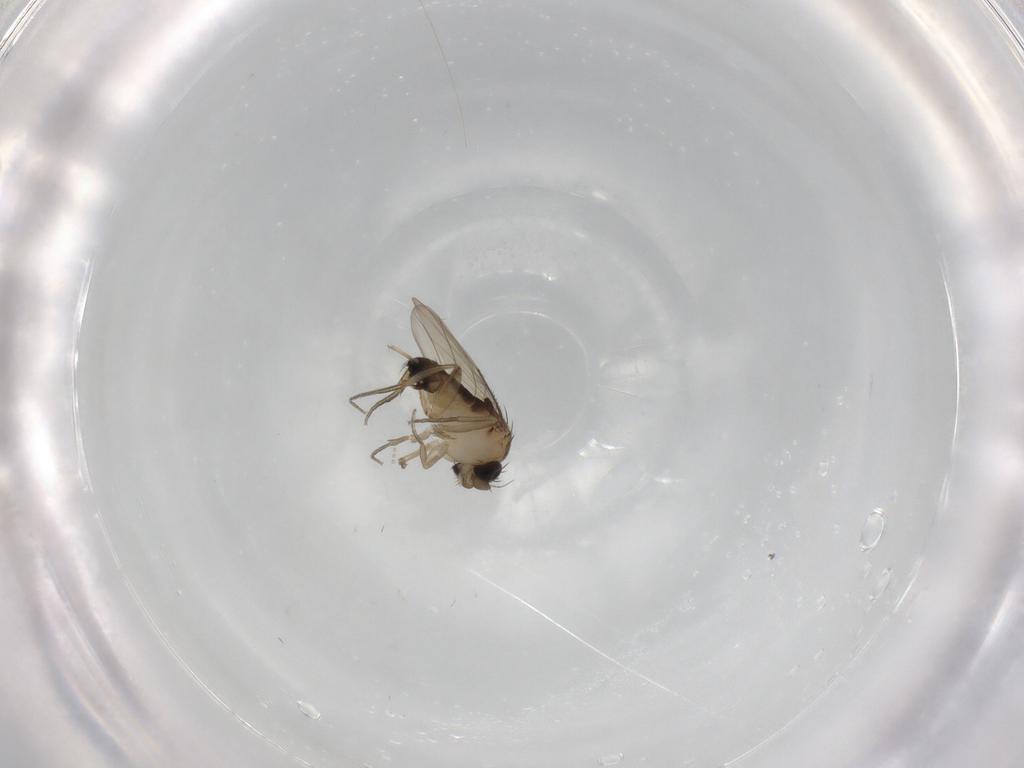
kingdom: Animalia
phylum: Arthropoda
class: Insecta
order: Diptera
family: Phoridae
